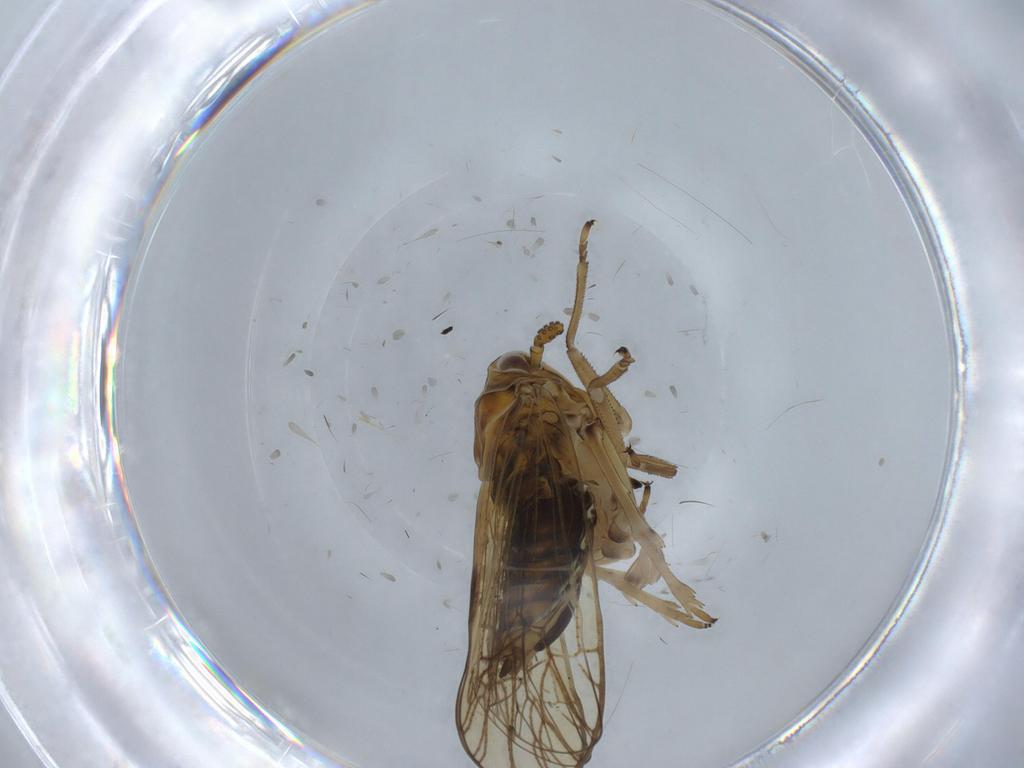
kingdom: Animalia
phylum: Arthropoda
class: Insecta
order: Hemiptera
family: Delphacidae
